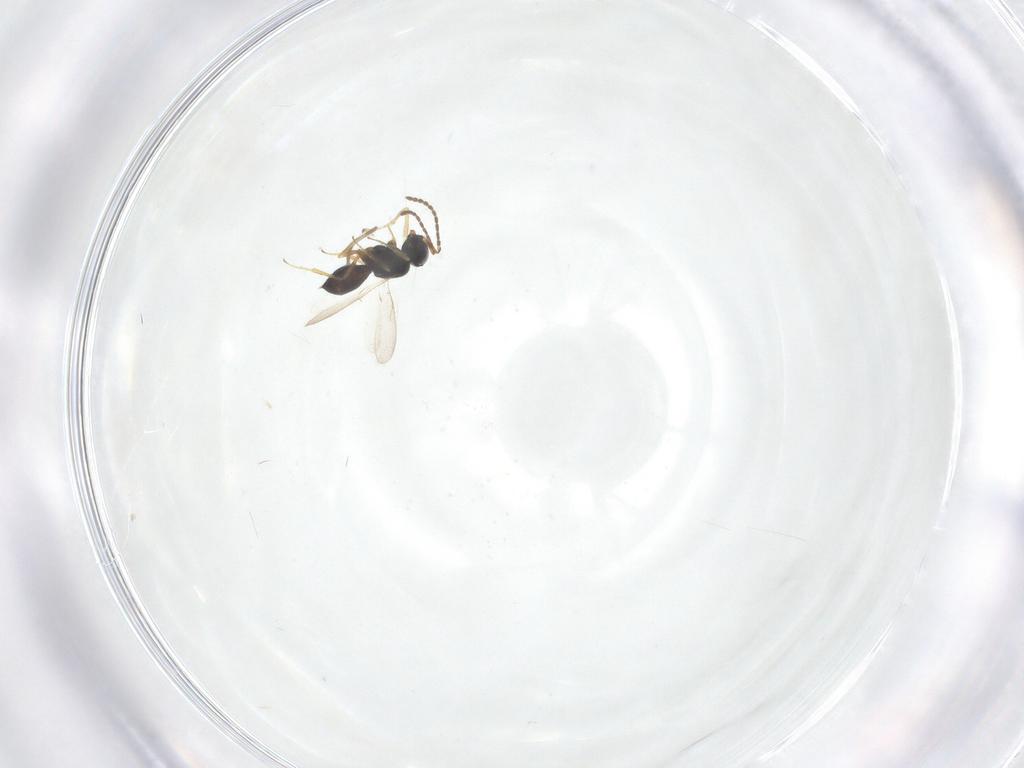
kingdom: Animalia
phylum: Arthropoda
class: Insecta
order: Hymenoptera
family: Braconidae
